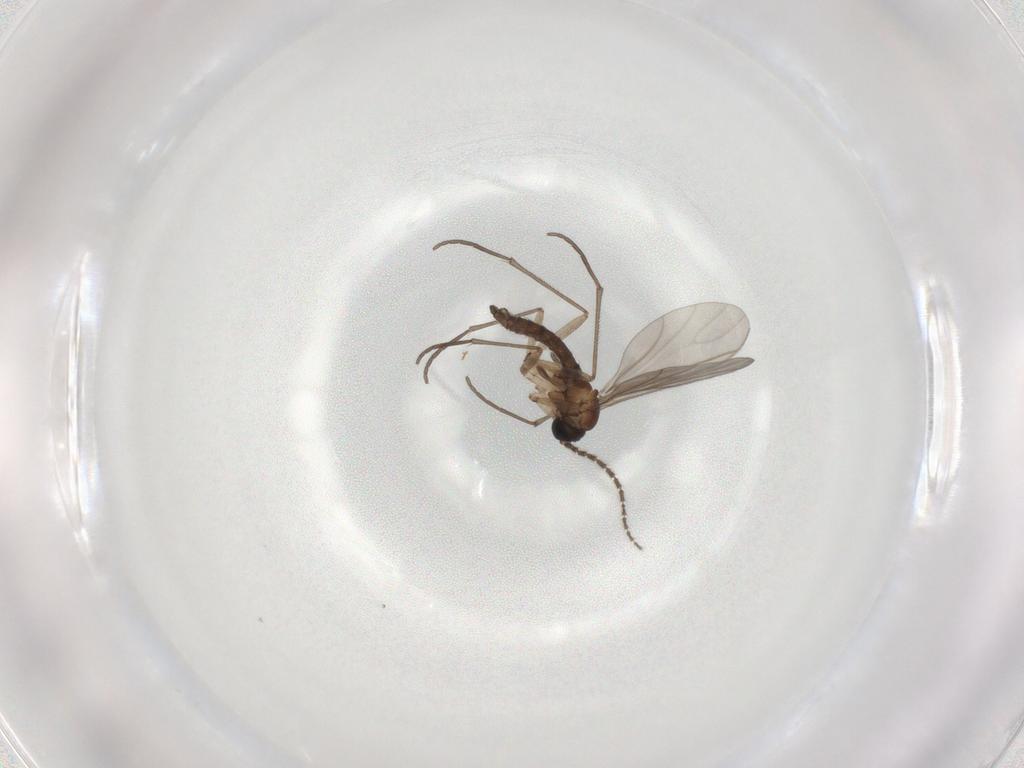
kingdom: Animalia
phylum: Arthropoda
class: Insecta
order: Diptera
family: Sciaridae
